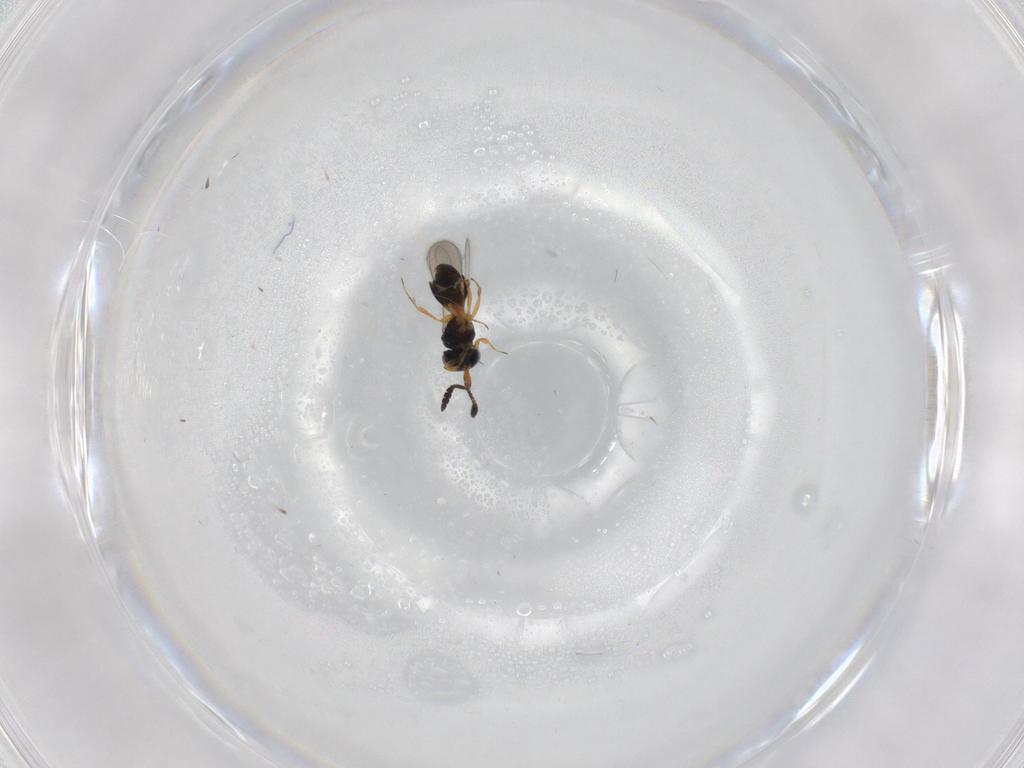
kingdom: Animalia
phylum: Arthropoda
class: Insecta
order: Hymenoptera
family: Scelionidae
